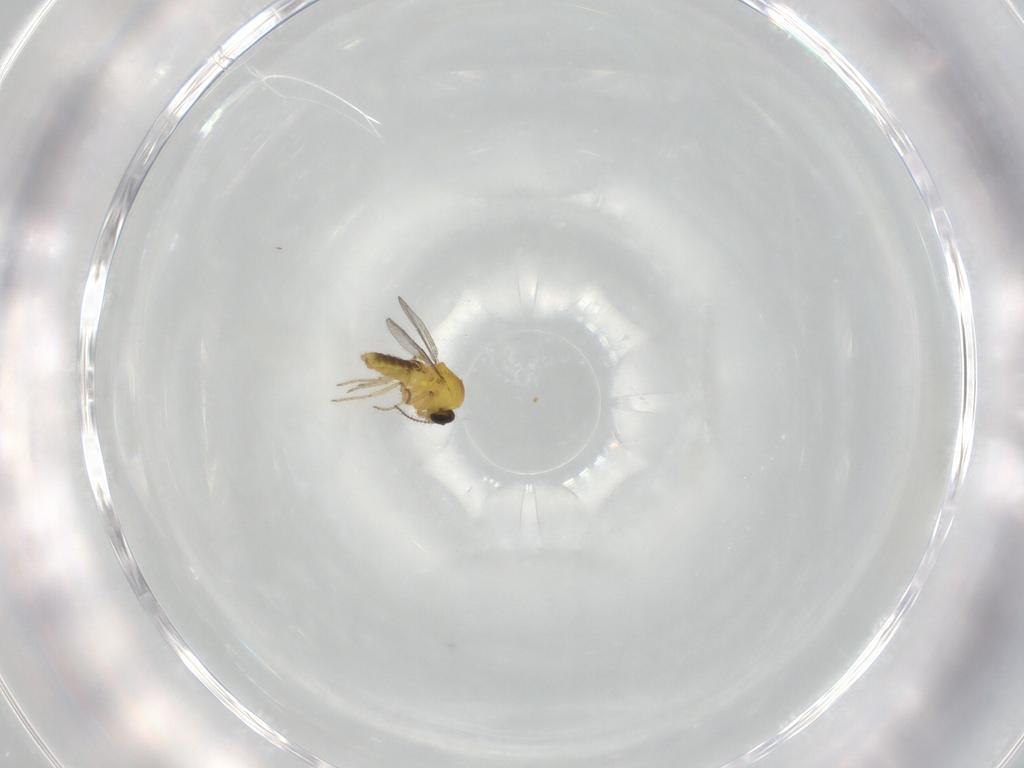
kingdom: Animalia
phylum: Arthropoda
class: Insecta
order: Diptera
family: Ceratopogonidae
